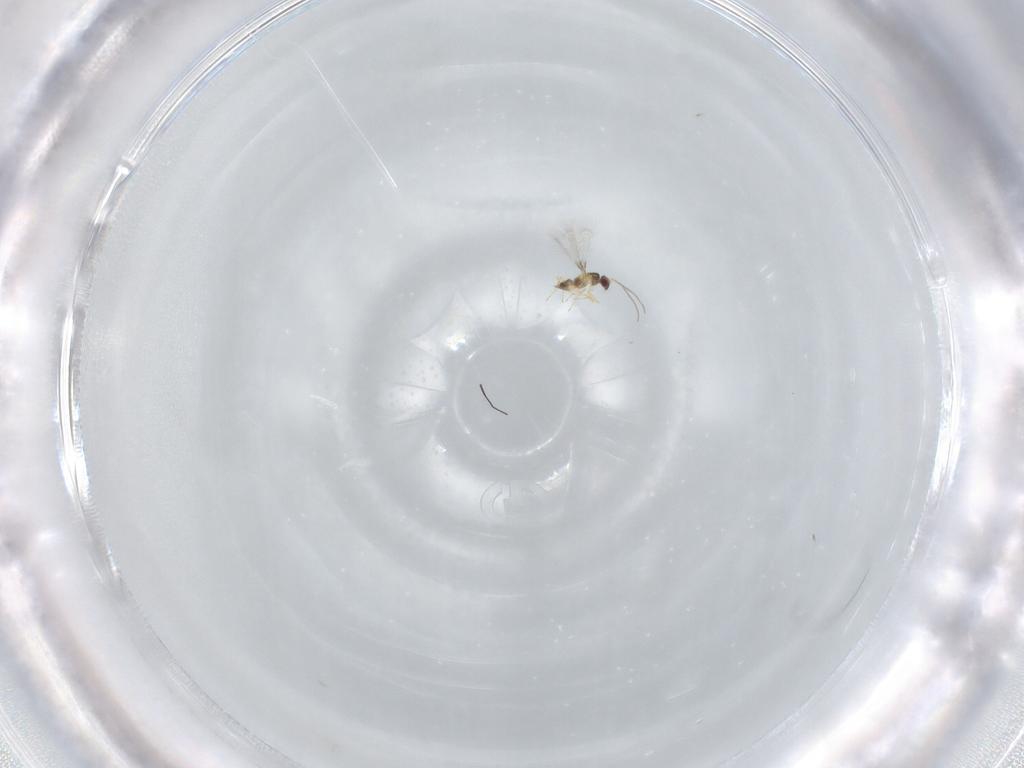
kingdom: Animalia
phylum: Arthropoda
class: Insecta
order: Hymenoptera
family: Mymaridae
